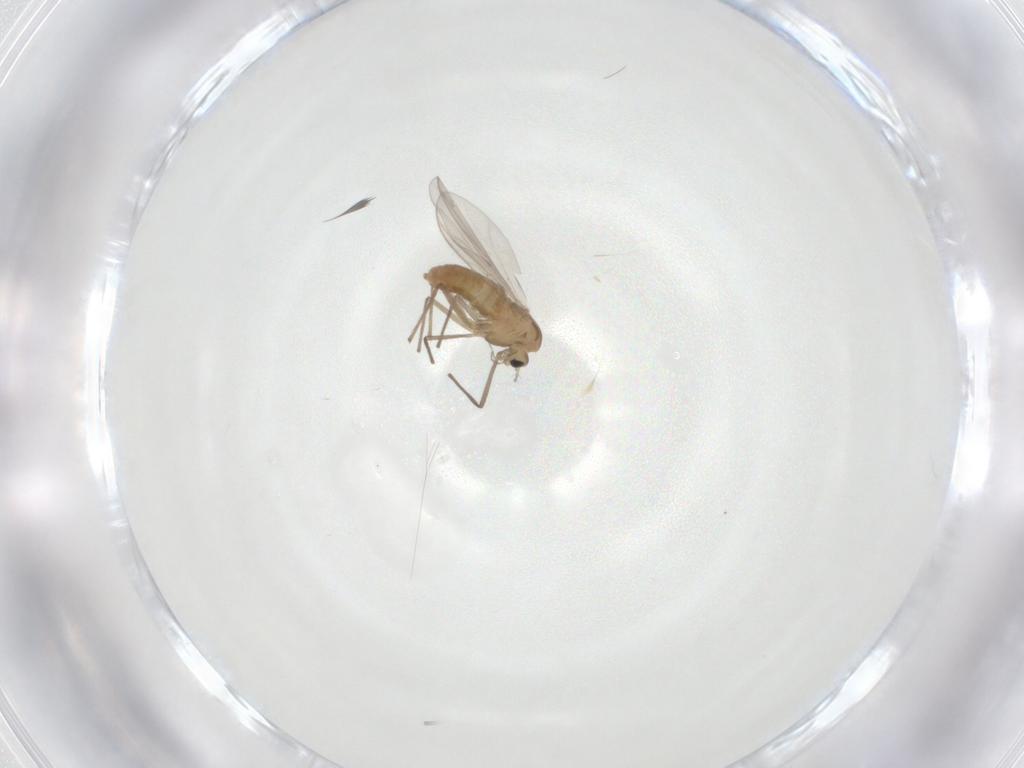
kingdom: Animalia
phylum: Arthropoda
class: Insecta
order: Diptera
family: Chironomidae
